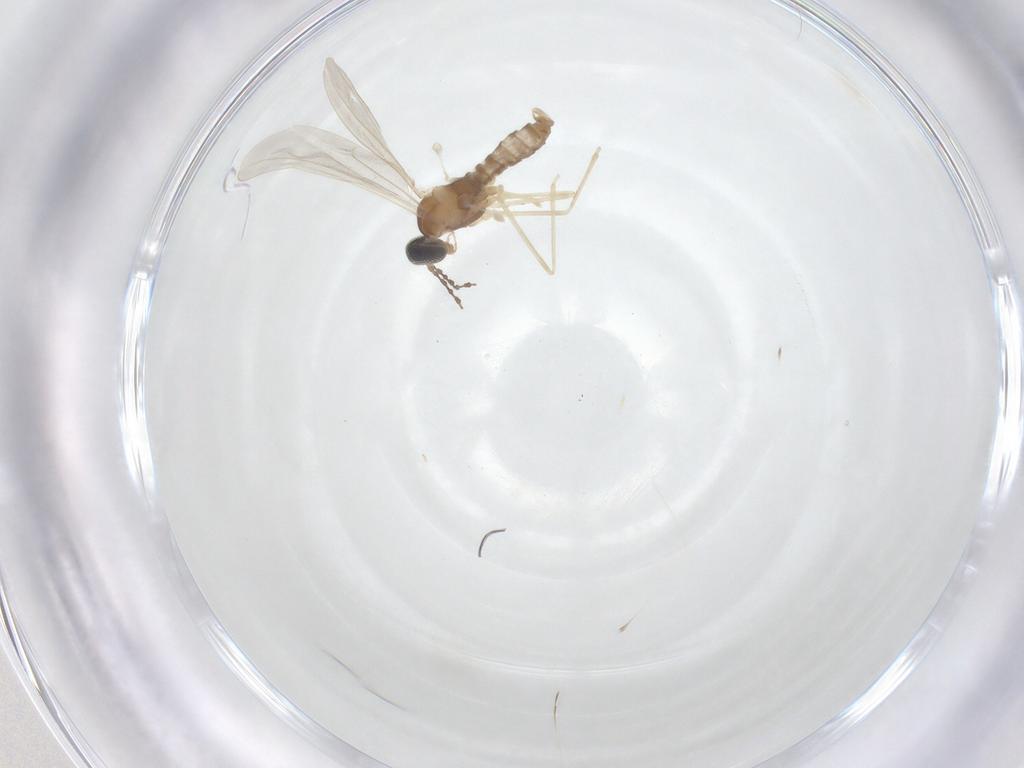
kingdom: Animalia
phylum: Arthropoda
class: Insecta
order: Diptera
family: Cecidomyiidae
